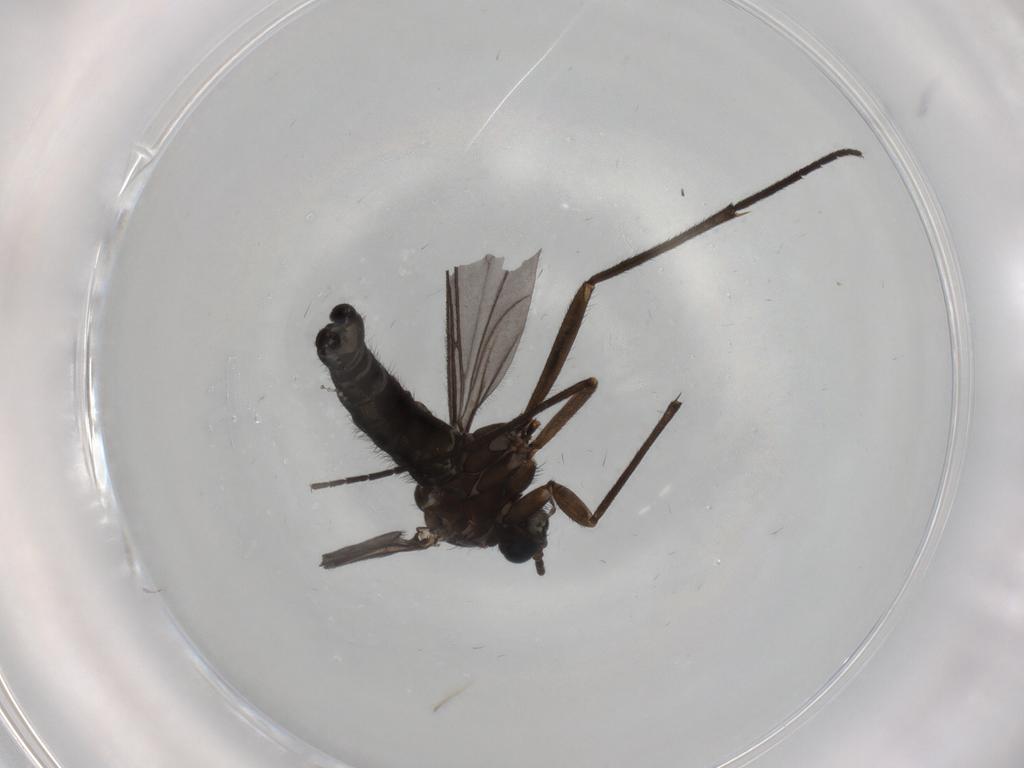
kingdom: Animalia
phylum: Arthropoda
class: Insecta
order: Diptera
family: Sciaridae
